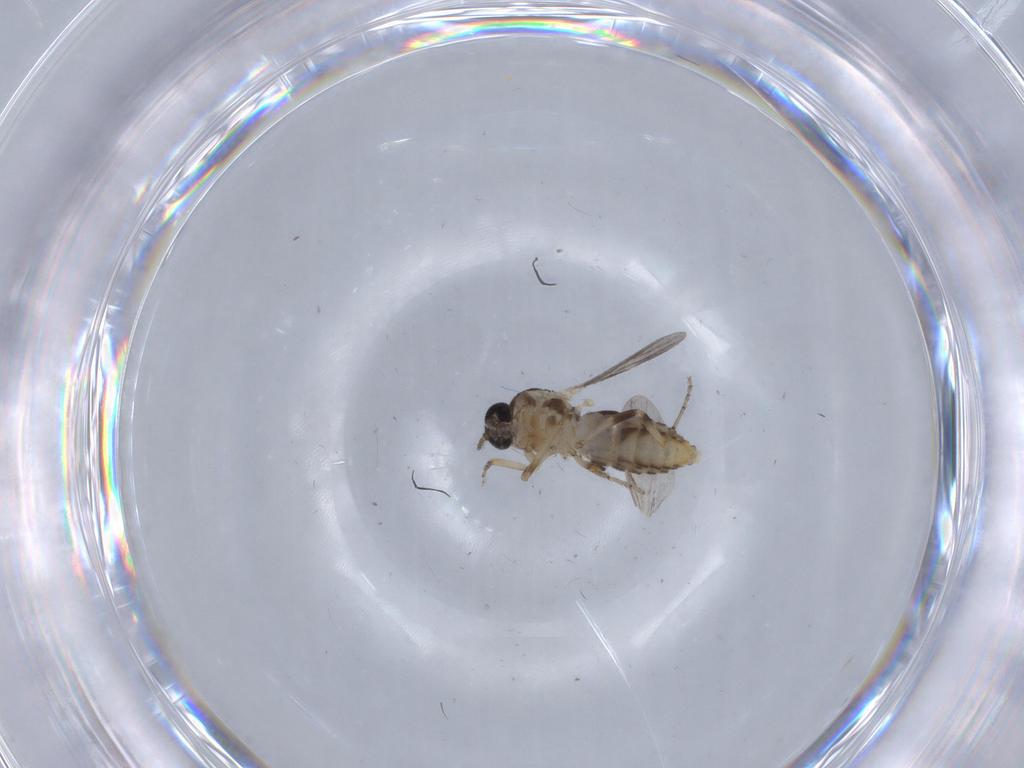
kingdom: Animalia
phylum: Arthropoda
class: Insecta
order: Diptera
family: Ceratopogonidae
